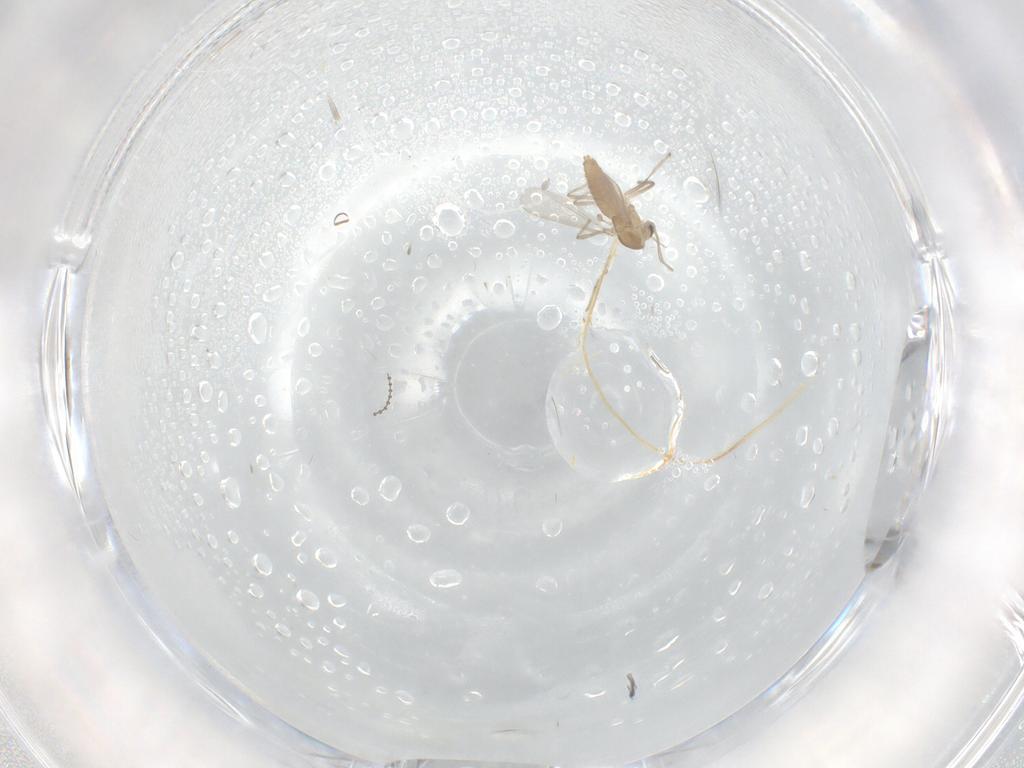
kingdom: Animalia
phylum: Arthropoda
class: Insecta
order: Diptera
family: Chironomidae
